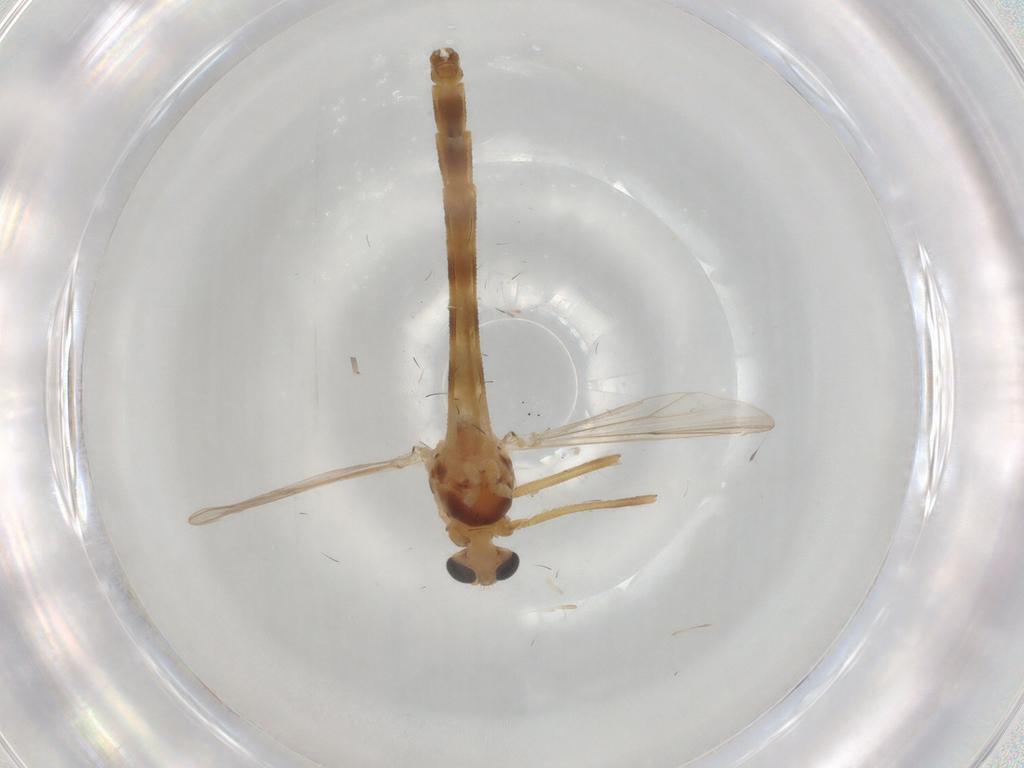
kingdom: Animalia
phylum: Arthropoda
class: Insecta
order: Diptera
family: Chironomidae
